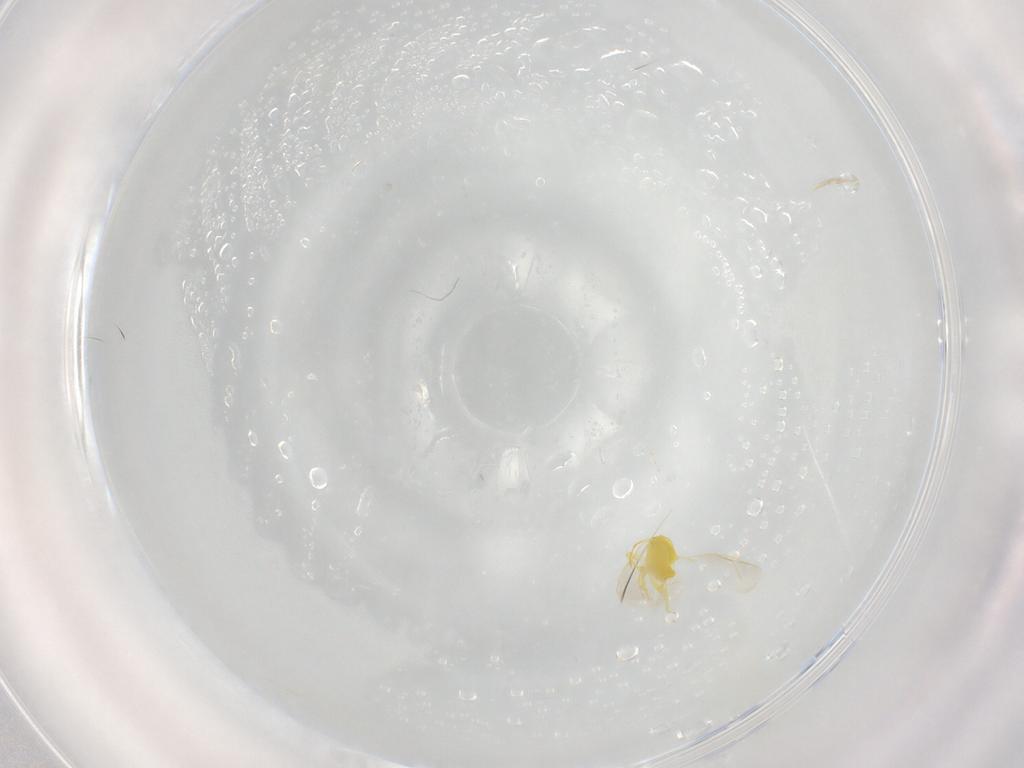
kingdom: Animalia
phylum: Arthropoda
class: Insecta
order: Hemiptera
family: Aleyrodidae
